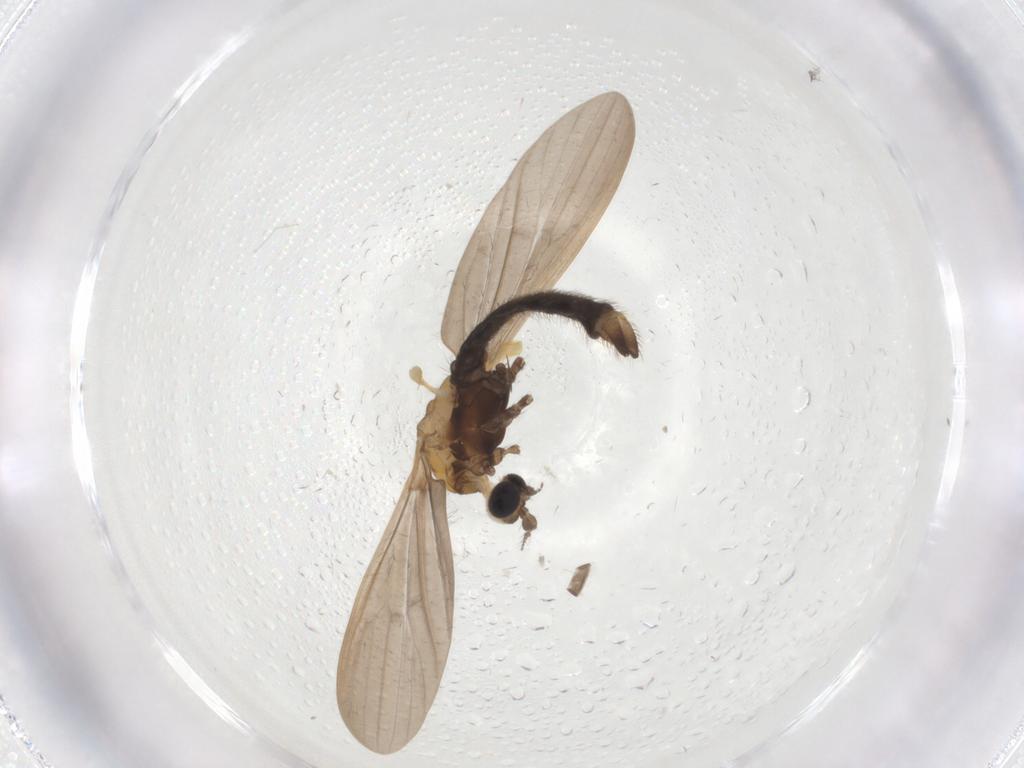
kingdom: Animalia
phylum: Arthropoda
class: Insecta
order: Diptera
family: Limoniidae
